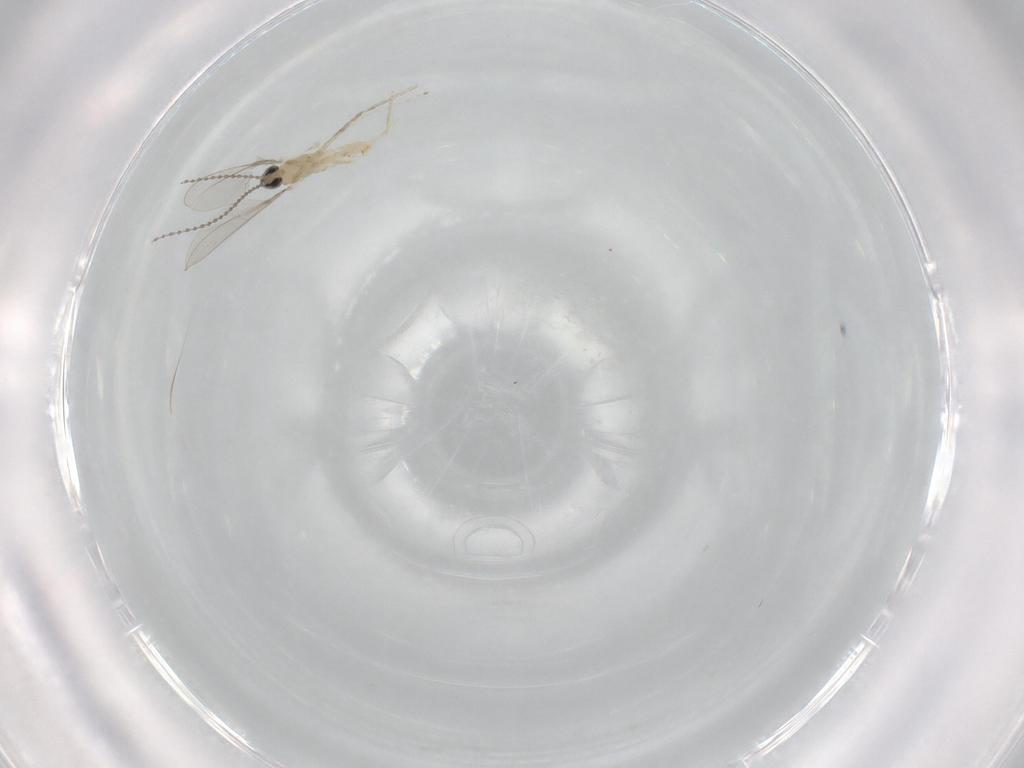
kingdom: Animalia
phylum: Arthropoda
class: Insecta
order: Diptera
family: Cecidomyiidae
